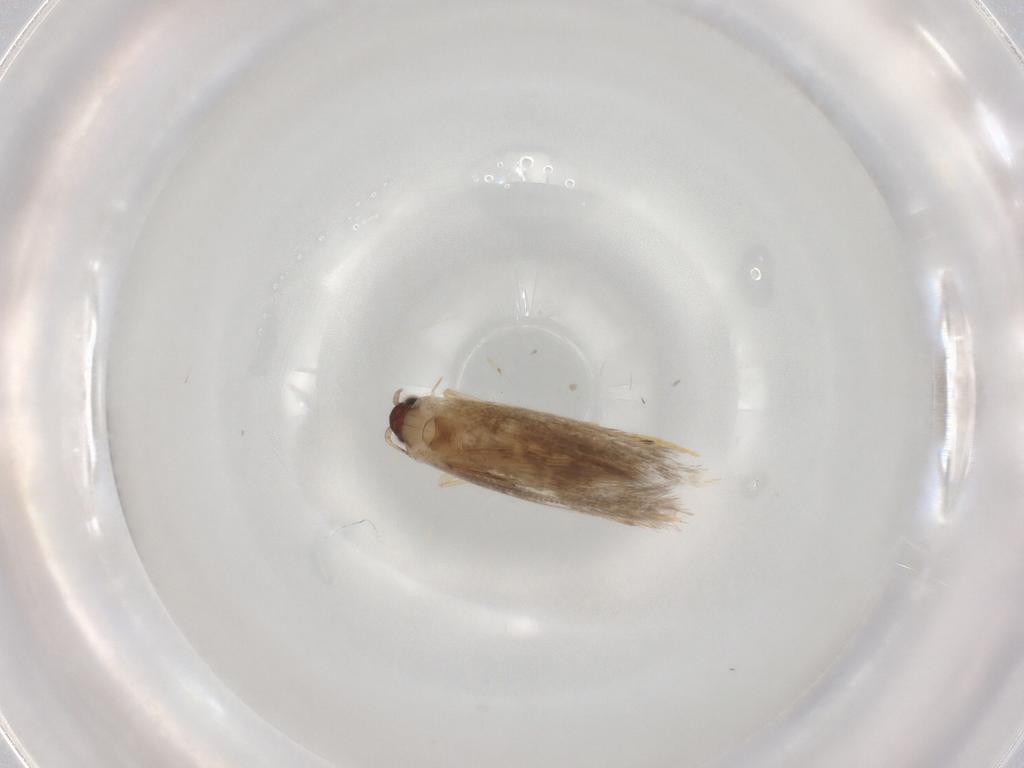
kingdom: Animalia
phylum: Arthropoda
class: Insecta
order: Lepidoptera
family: Tineidae
